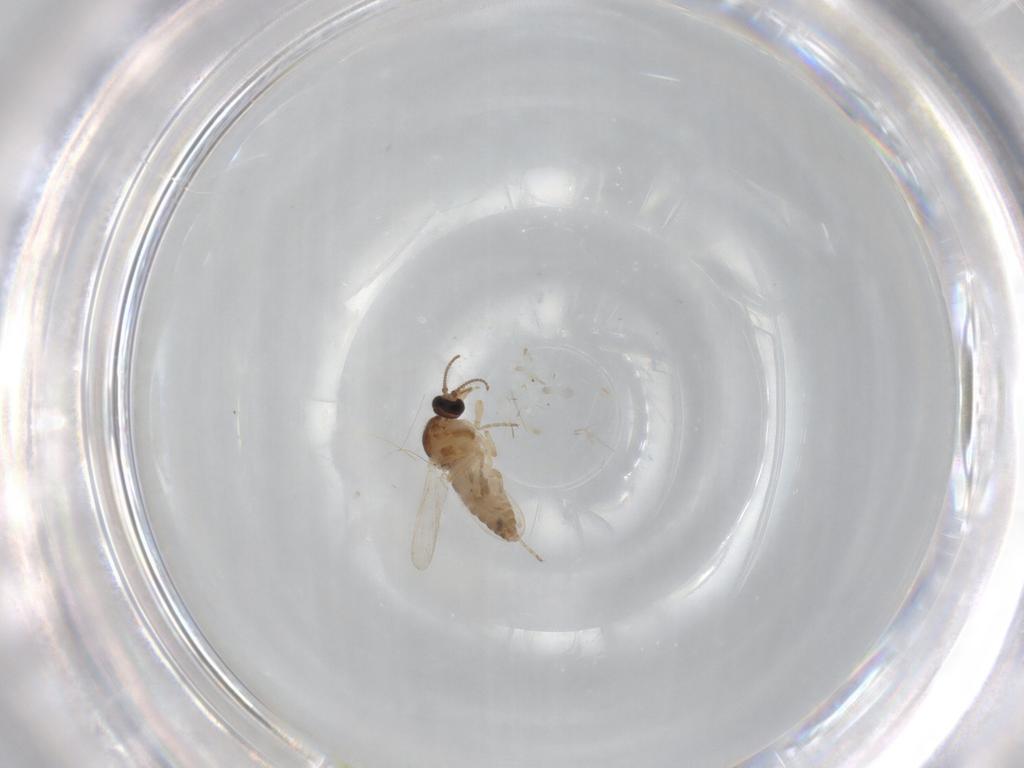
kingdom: Animalia
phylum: Arthropoda
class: Insecta
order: Diptera
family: Ceratopogonidae
